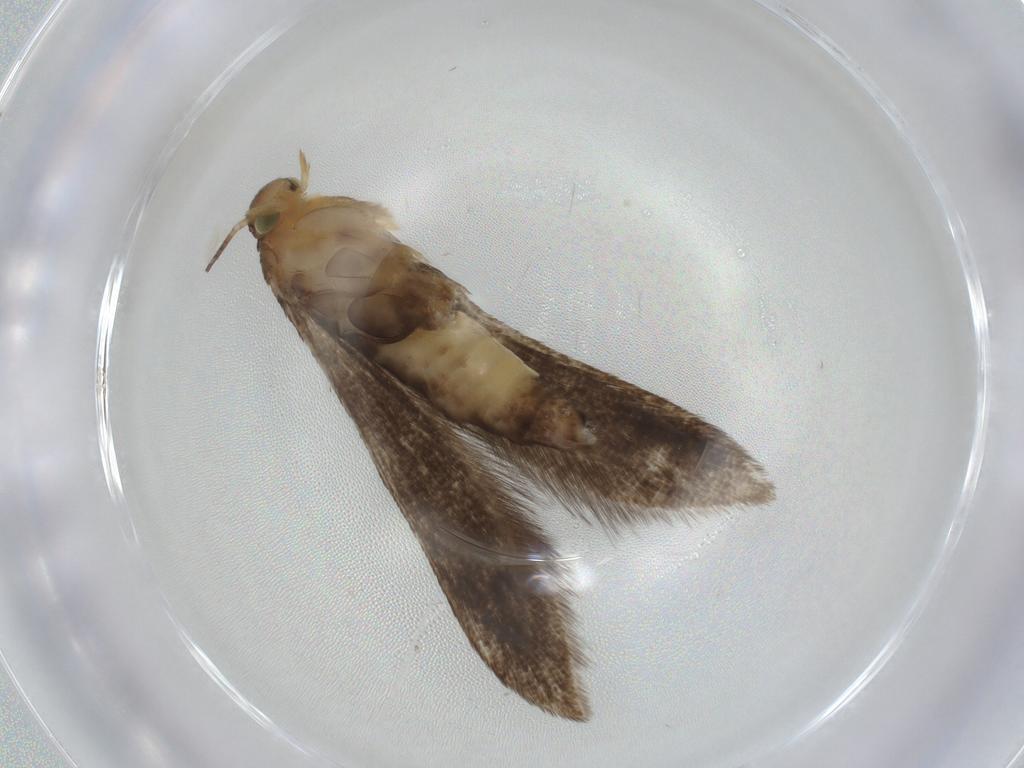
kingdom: Animalia
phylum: Arthropoda
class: Insecta
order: Lepidoptera
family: Oecophoridae
